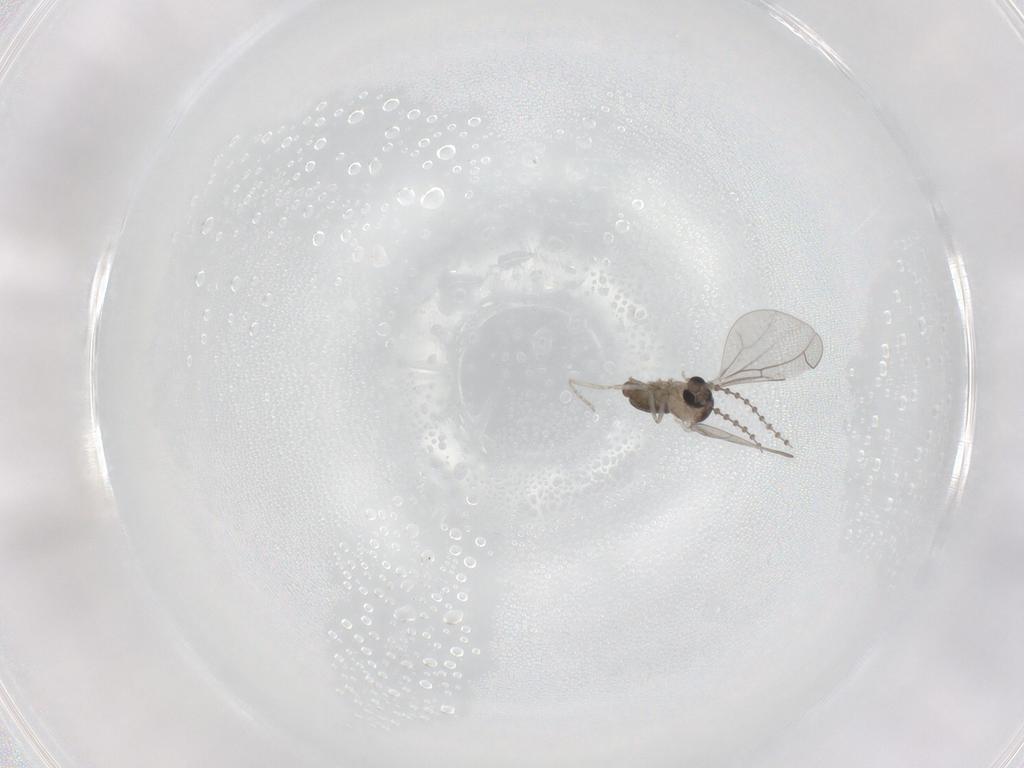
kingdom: Animalia
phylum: Arthropoda
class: Insecta
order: Diptera
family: Cecidomyiidae
